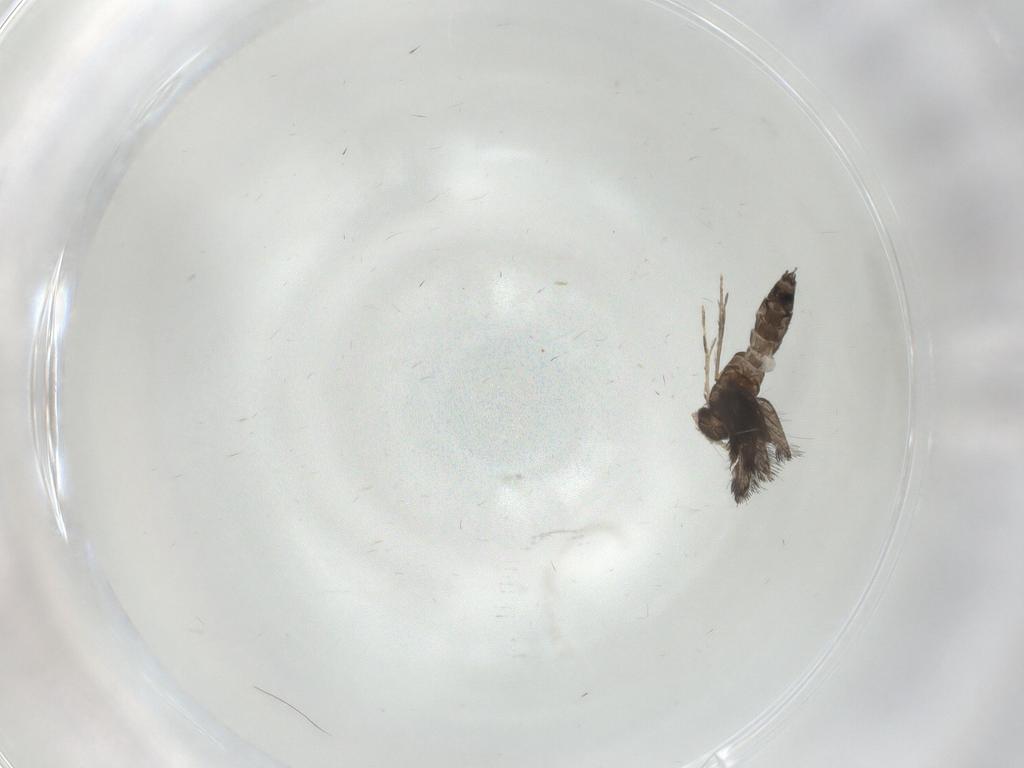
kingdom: Animalia
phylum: Arthropoda
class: Insecta
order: Trichoptera
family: Hydroptilidae
